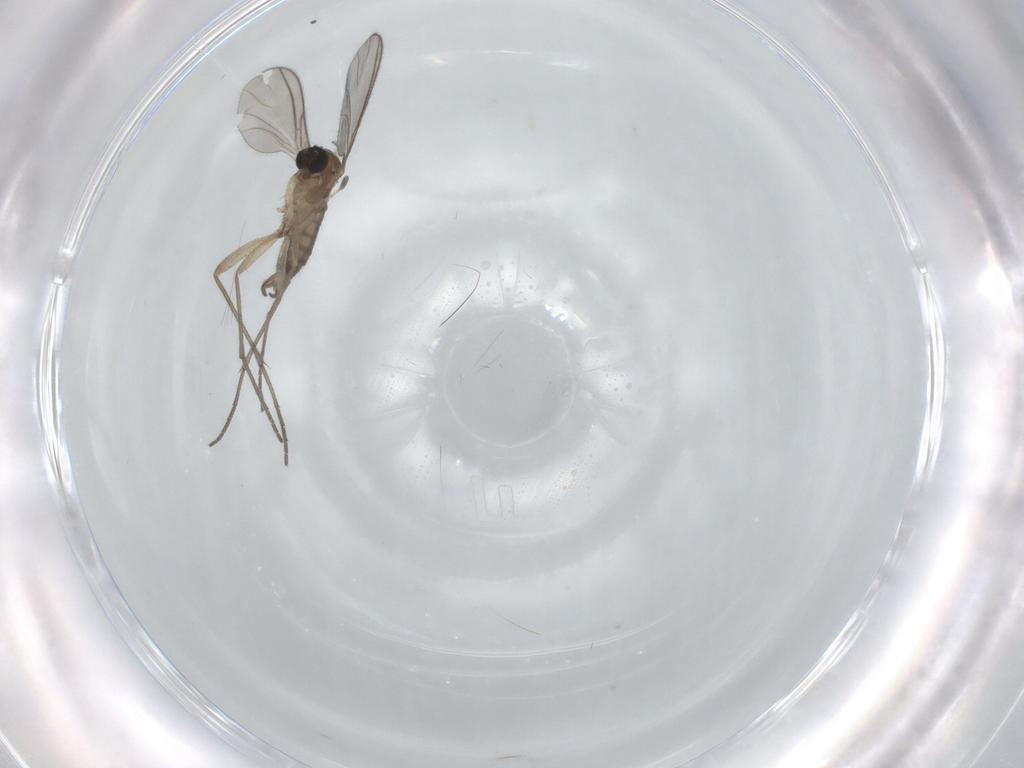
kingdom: Animalia
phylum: Arthropoda
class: Insecta
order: Diptera
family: Sciaridae
